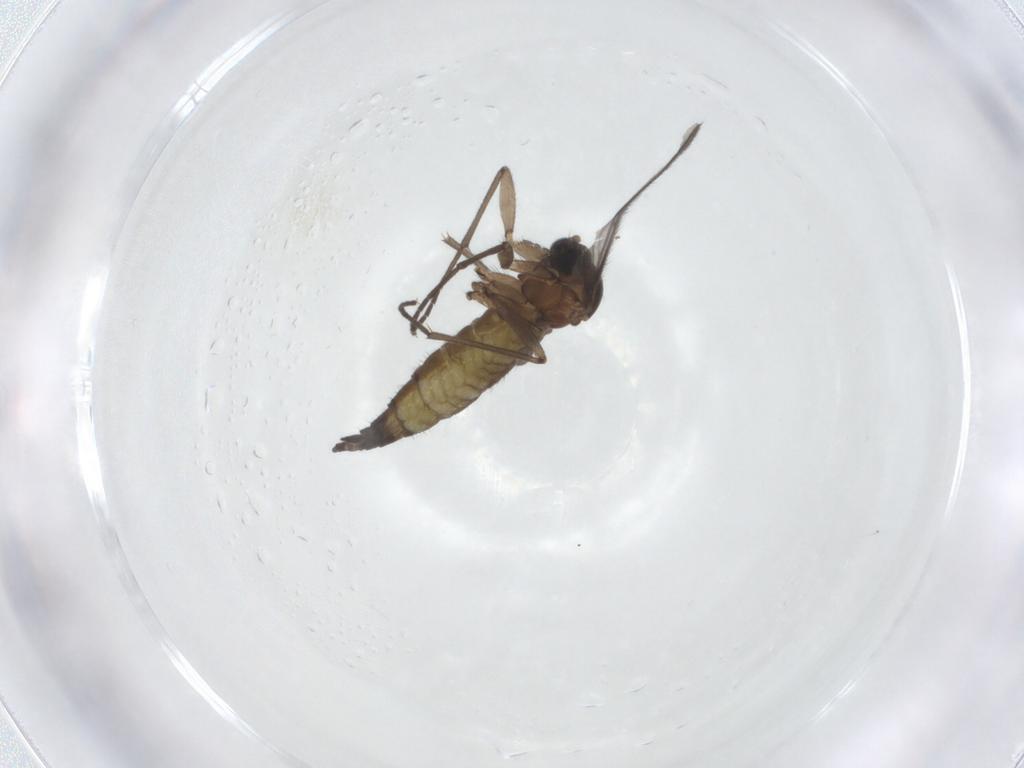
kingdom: Animalia
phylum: Arthropoda
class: Insecta
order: Diptera
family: Sciaridae
